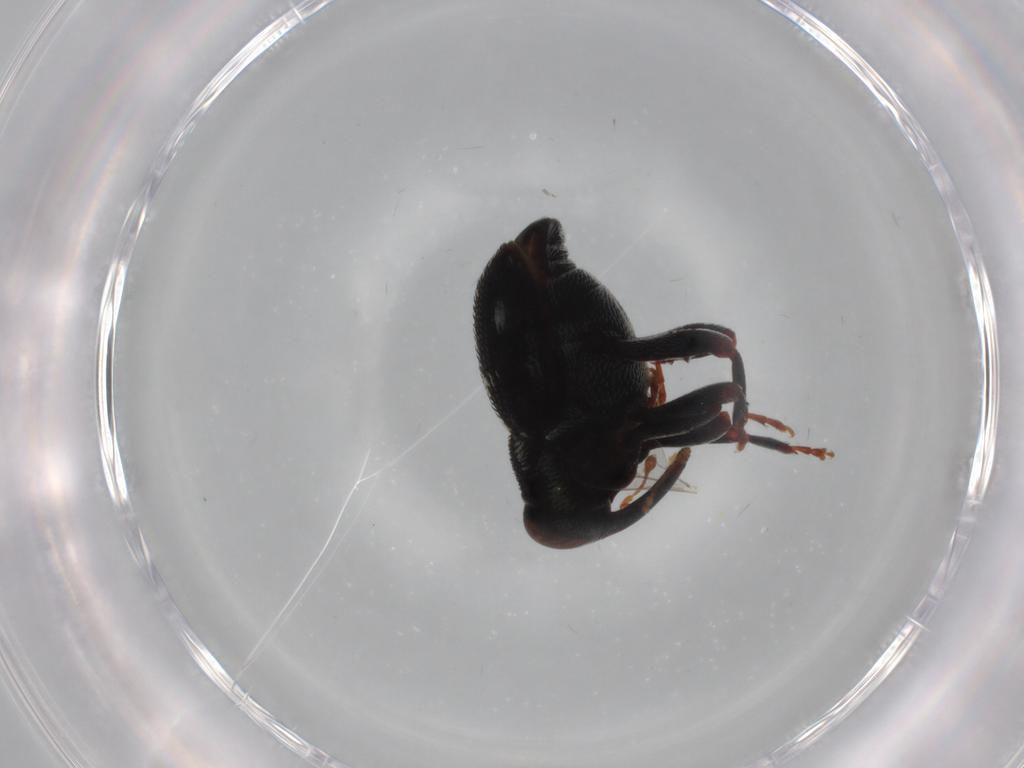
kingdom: Animalia
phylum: Arthropoda
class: Insecta
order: Coleoptera
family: Curculionidae
